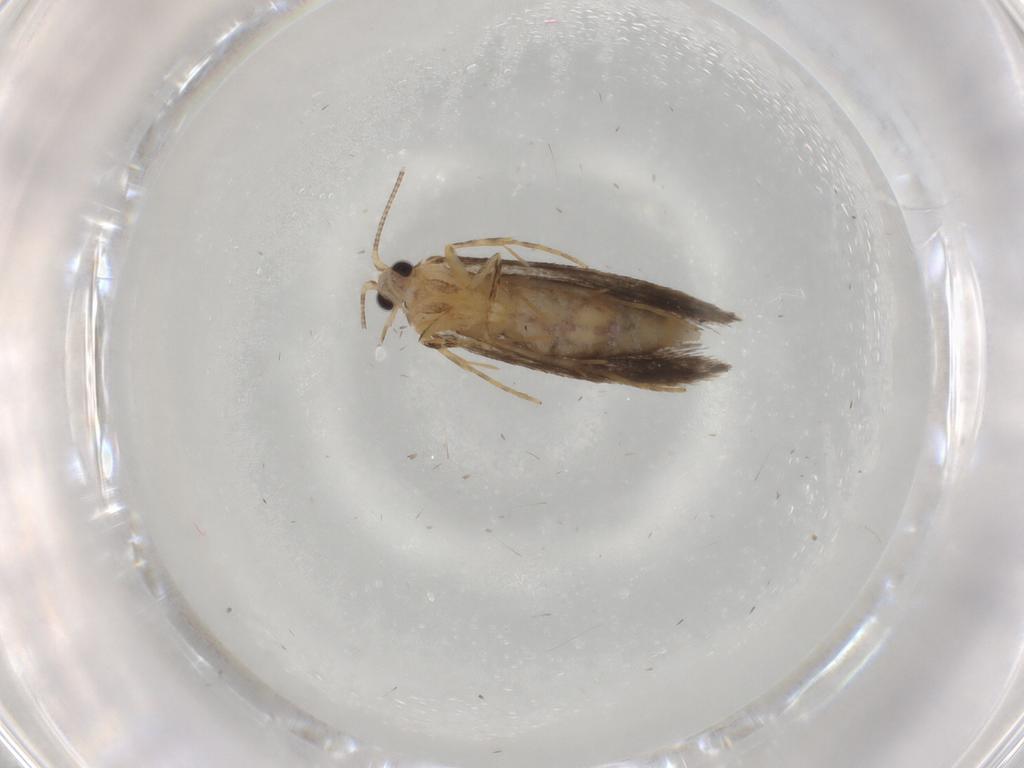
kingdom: Animalia
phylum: Arthropoda
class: Insecta
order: Lepidoptera
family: Nepticulidae
